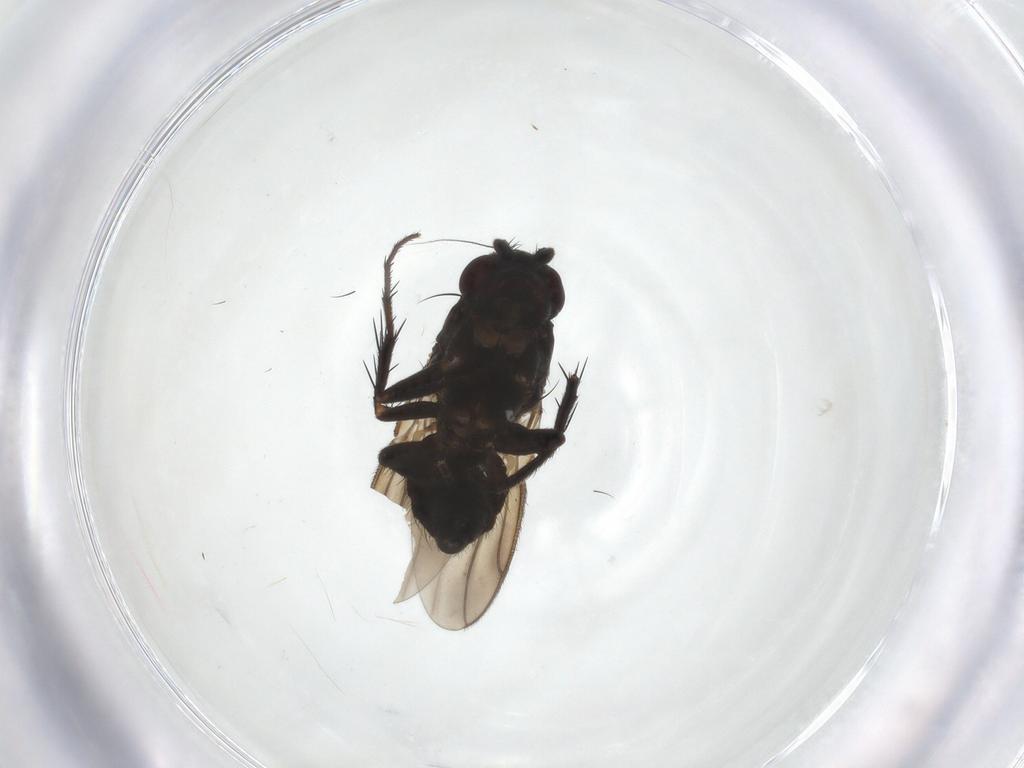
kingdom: Animalia
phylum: Arthropoda
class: Insecta
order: Diptera
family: Sphaeroceridae
